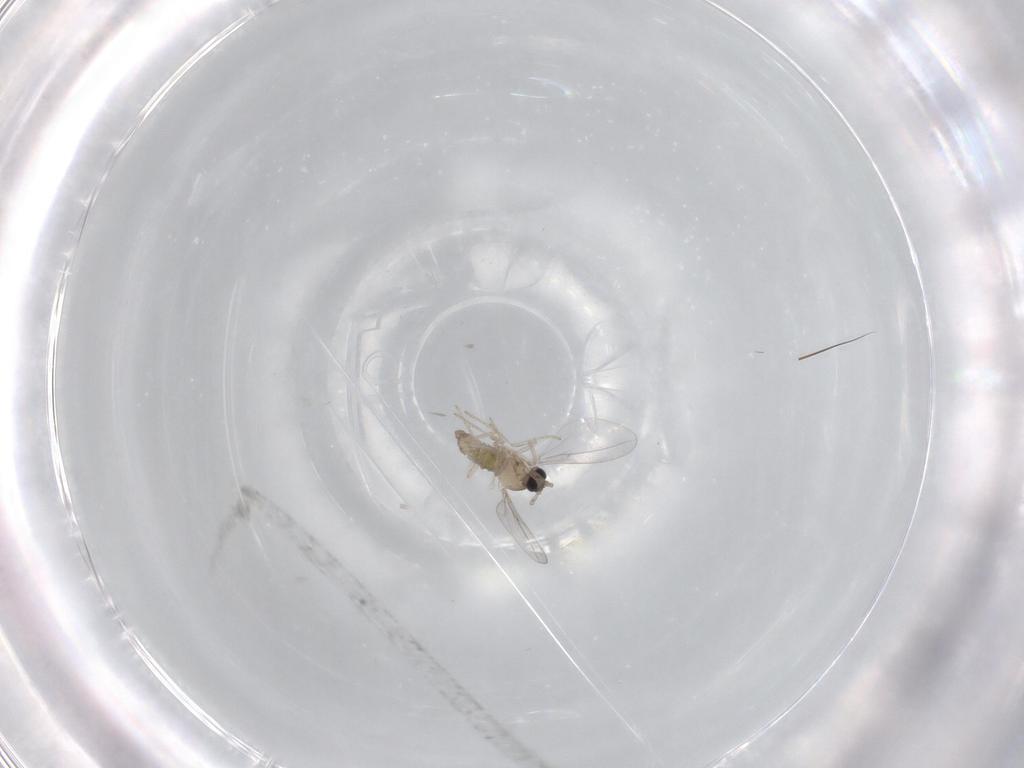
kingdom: Animalia
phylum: Arthropoda
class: Insecta
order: Diptera
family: Cecidomyiidae
